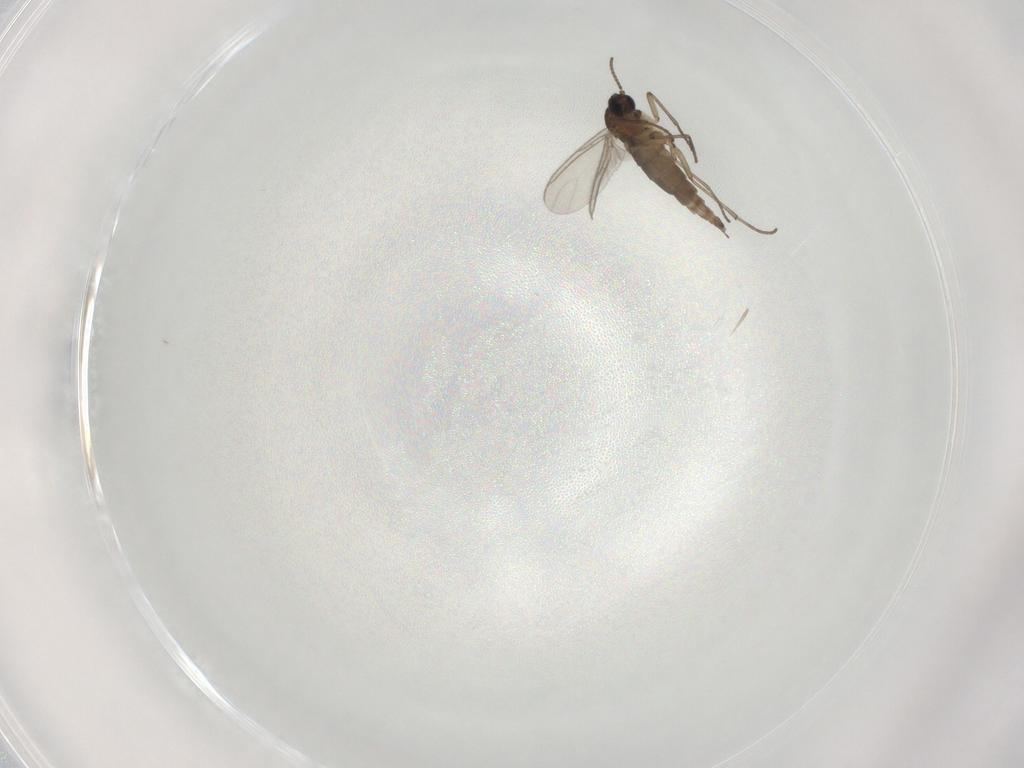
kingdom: Animalia
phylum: Arthropoda
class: Insecta
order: Diptera
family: Sciaridae
